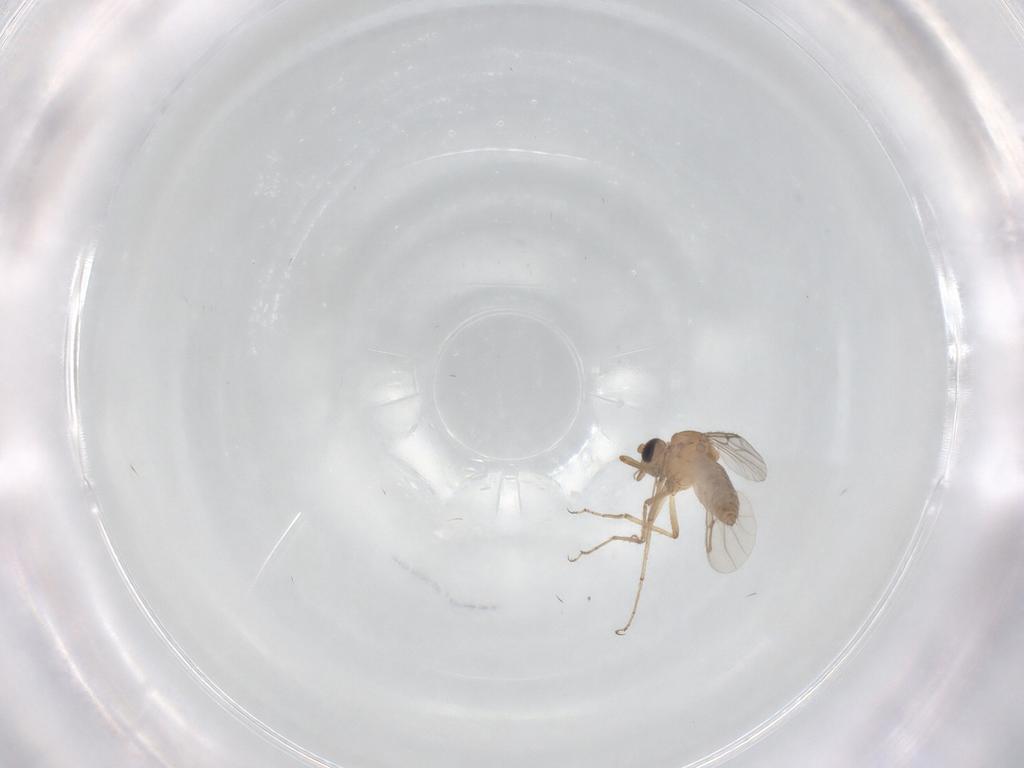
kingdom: Animalia
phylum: Arthropoda
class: Insecta
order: Diptera
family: Ceratopogonidae
